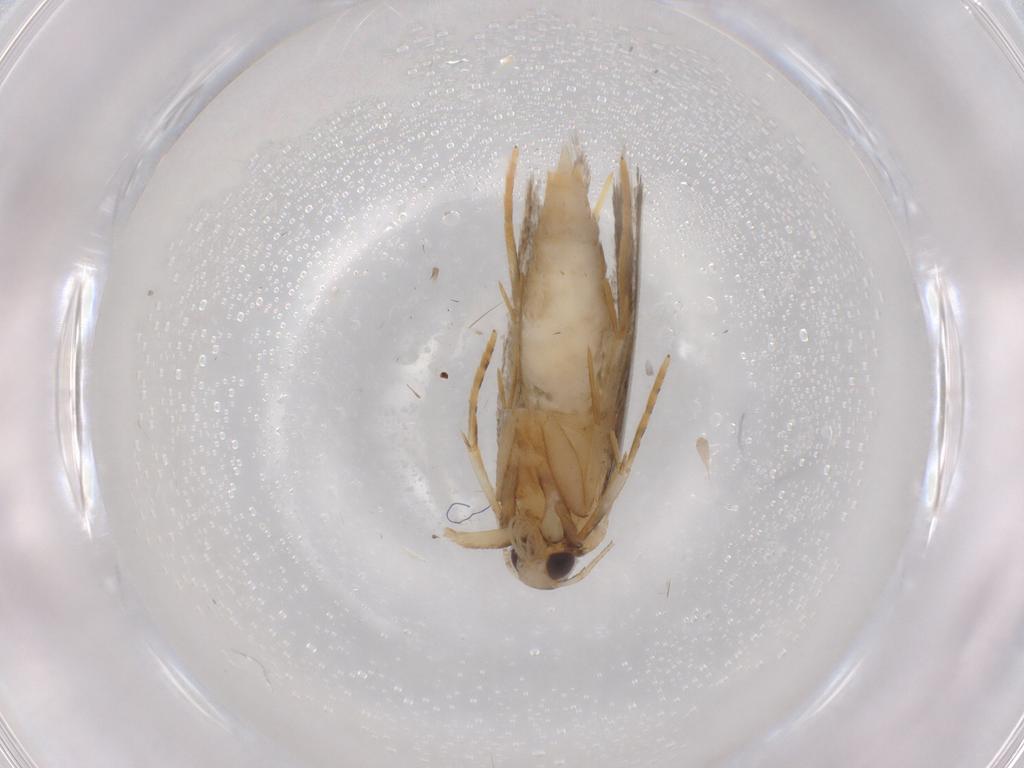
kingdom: Animalia
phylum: Arthropoda
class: Insecta
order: Lepidoptera
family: Autostichidae
